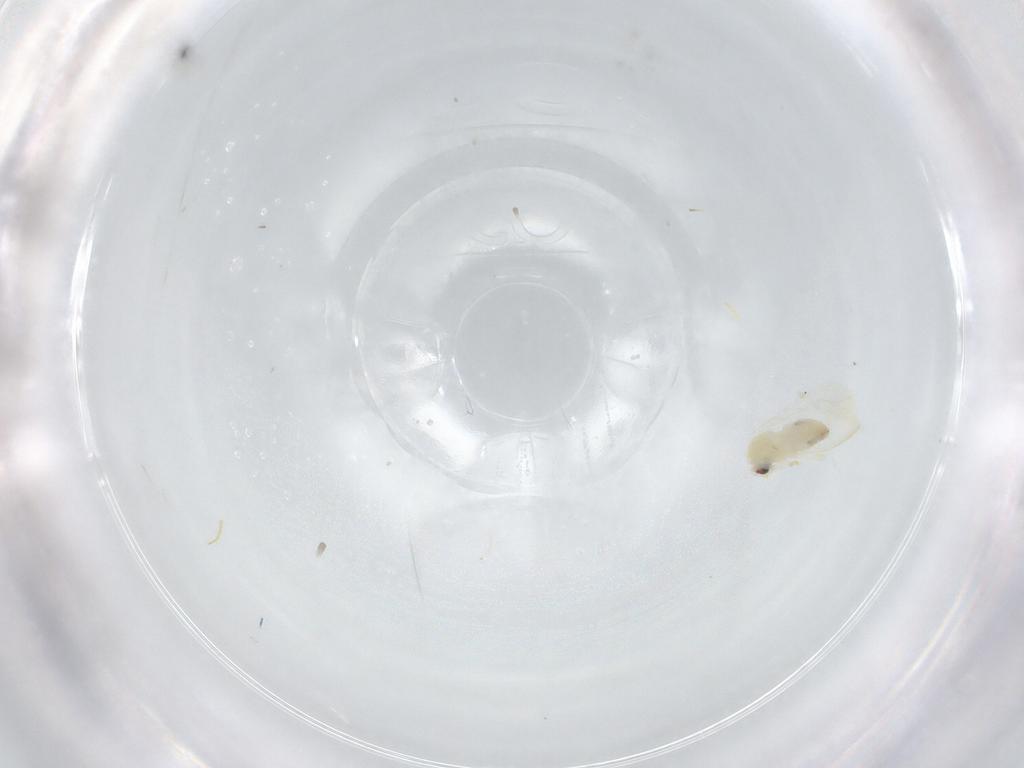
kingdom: Animalia
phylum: Arthropoda
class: Insecta
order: Hemiptera
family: Aleyrodidae
